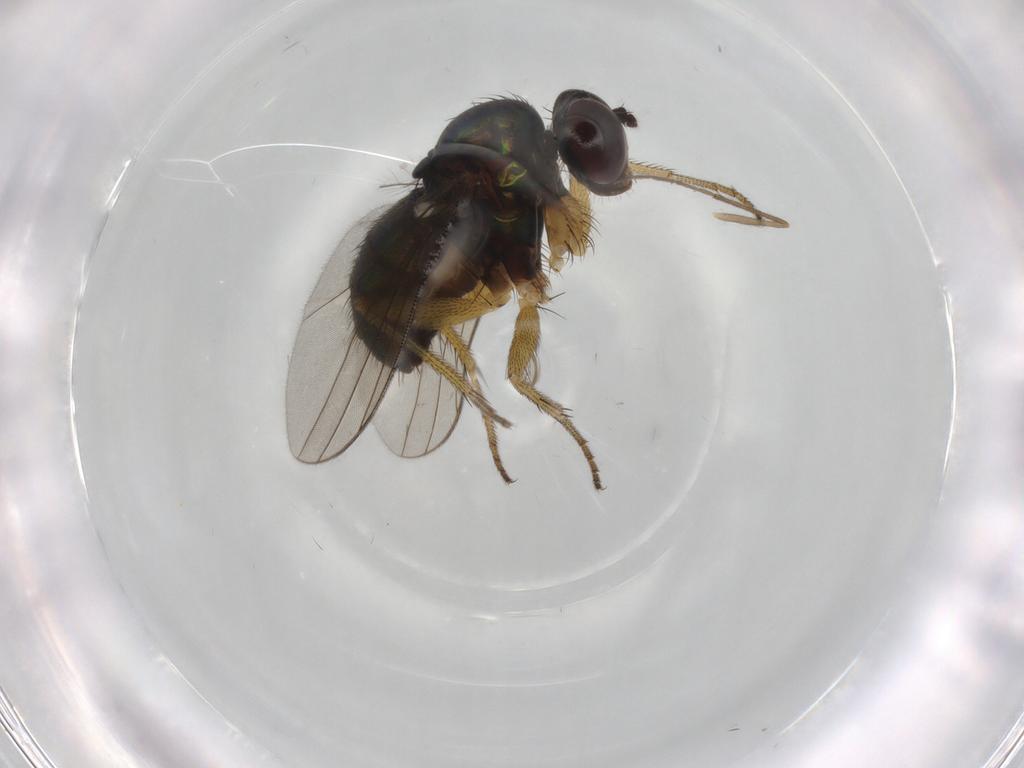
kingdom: Animalia
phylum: Arthropoda
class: Insecta
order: Diptera
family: Dolichopodidae
